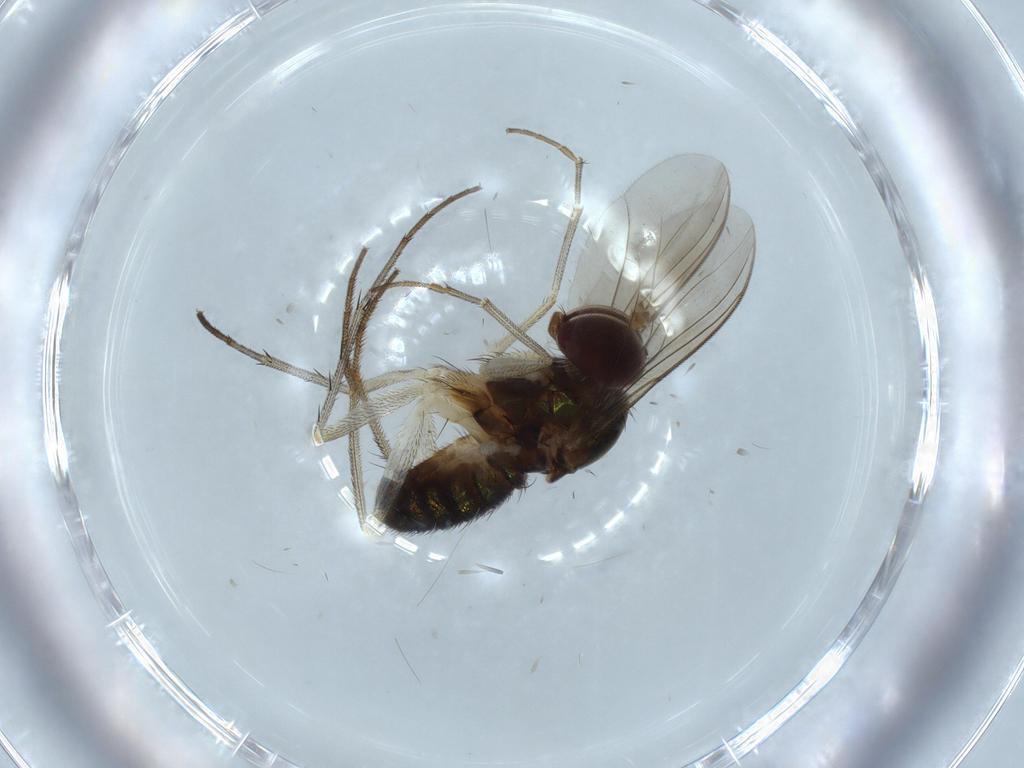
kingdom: Animalia
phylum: Arthropoda
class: Insecta
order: Diptera
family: Dolichopodidae
